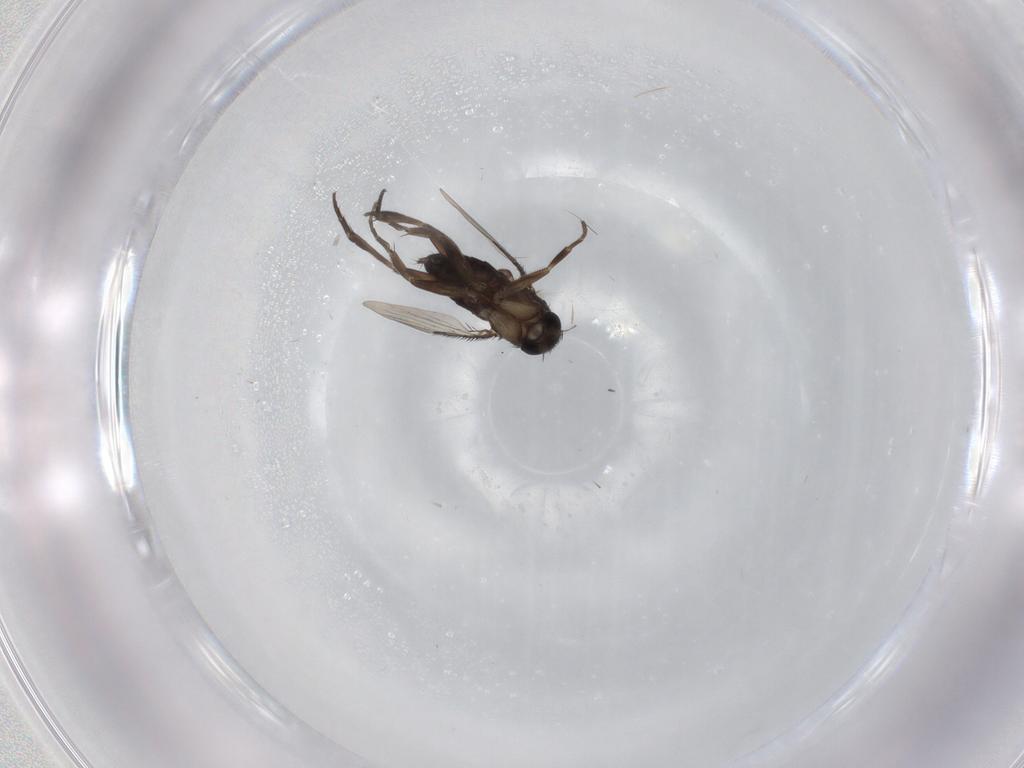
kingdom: Animalia
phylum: Arthropoda
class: Insecta
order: Diptera
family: Phoridae
